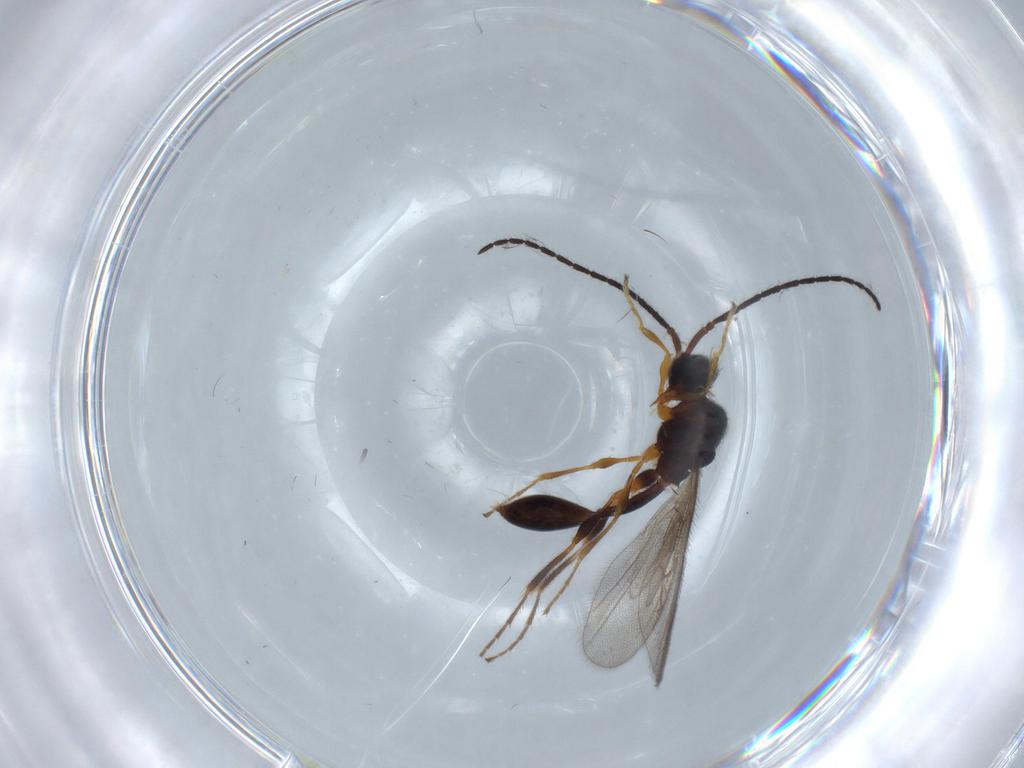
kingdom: Animalia
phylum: Arthropoda
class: Insecta
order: Hymenoptera
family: Diapriidae
